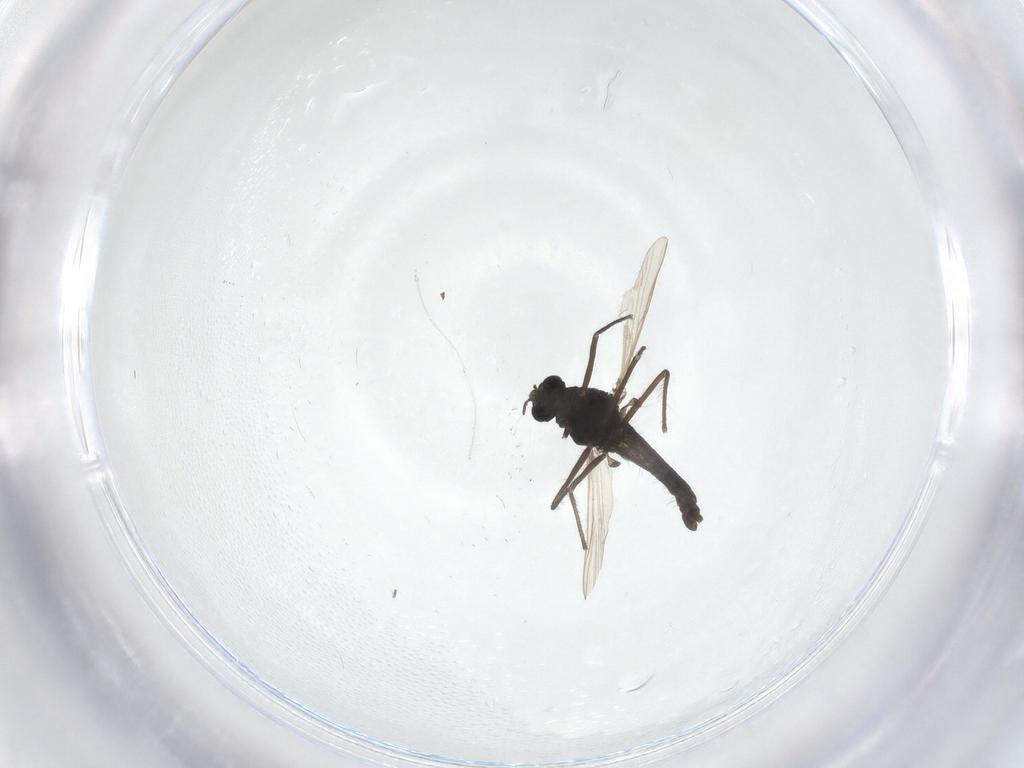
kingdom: Animalia
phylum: Arthropoda
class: Insecta
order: Diptera
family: Chironomidae
